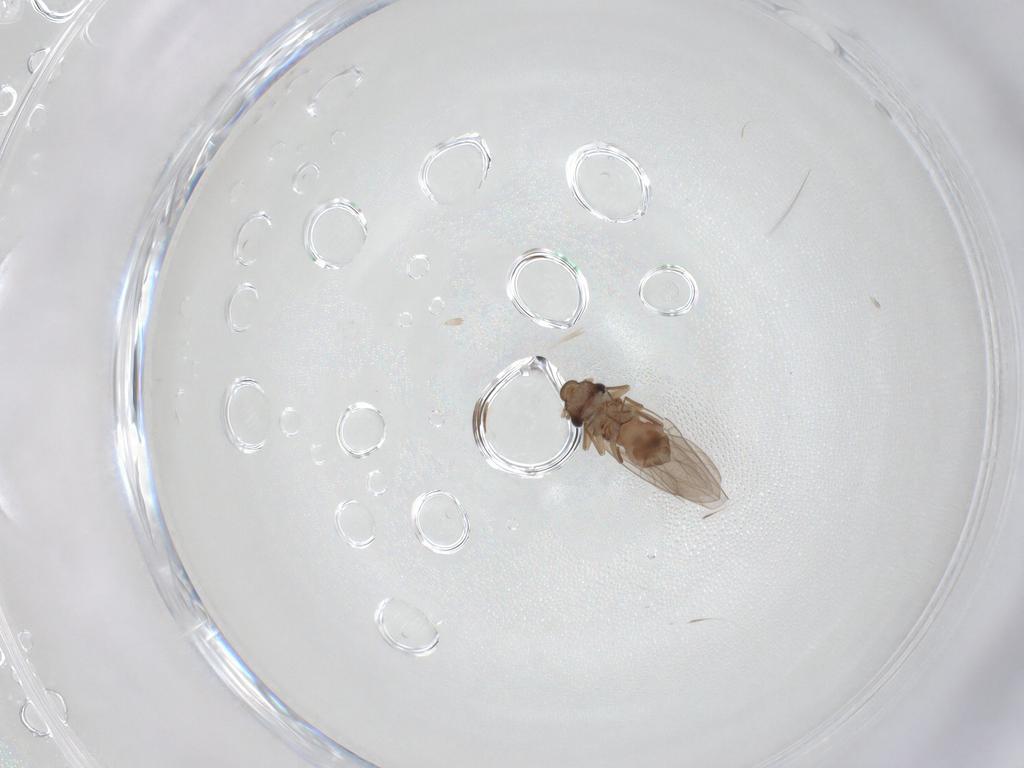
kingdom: Animalia
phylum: Arthropoda
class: Insecta
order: Psocodea
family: Lepidopsocidae
